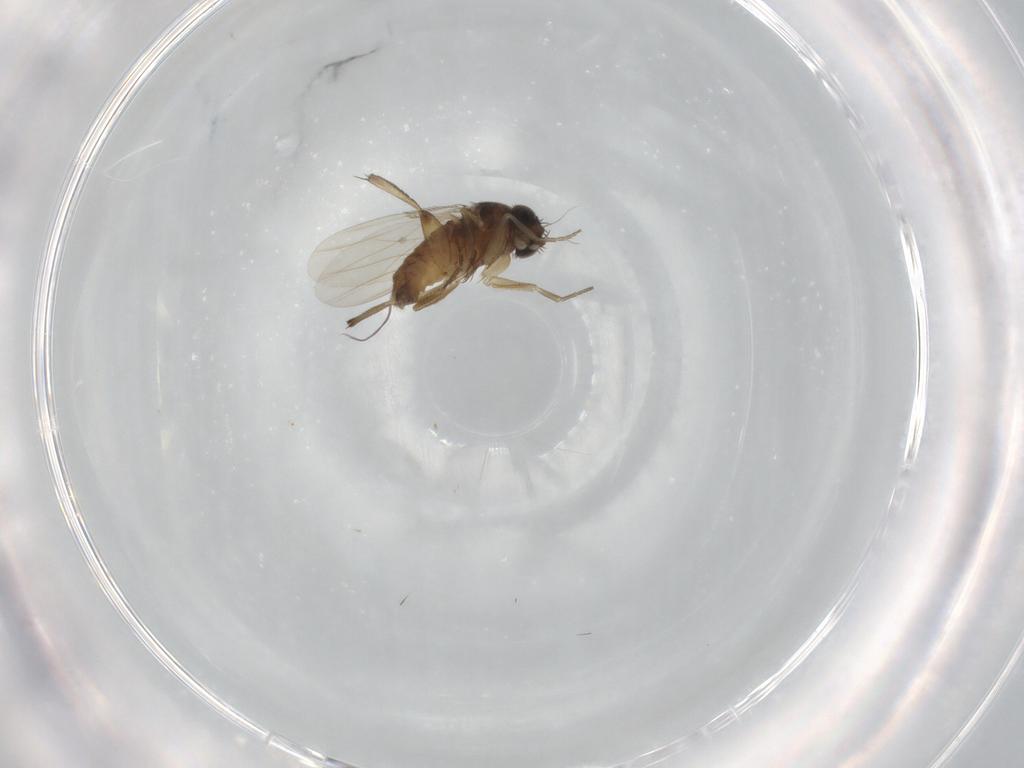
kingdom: Animalia
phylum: Arthropoda
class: Insecta
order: Diptera
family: Phoridae
